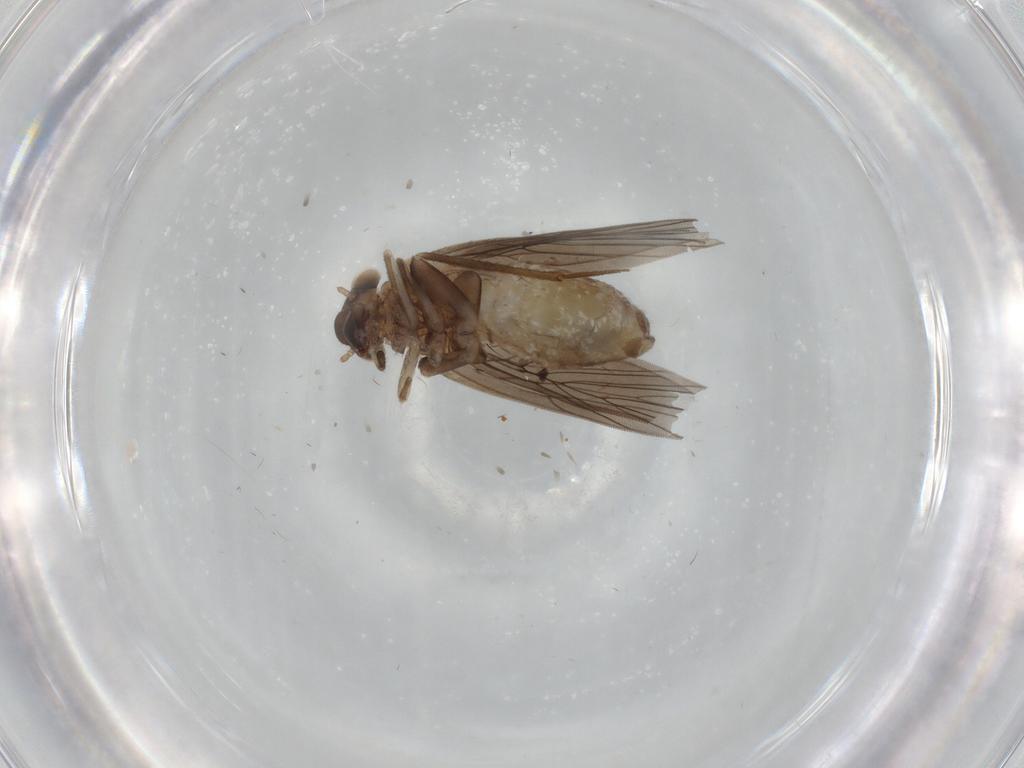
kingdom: Animalia
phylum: Arthropoda
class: Insecta
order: Psocodea
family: Lepidopsocidae
